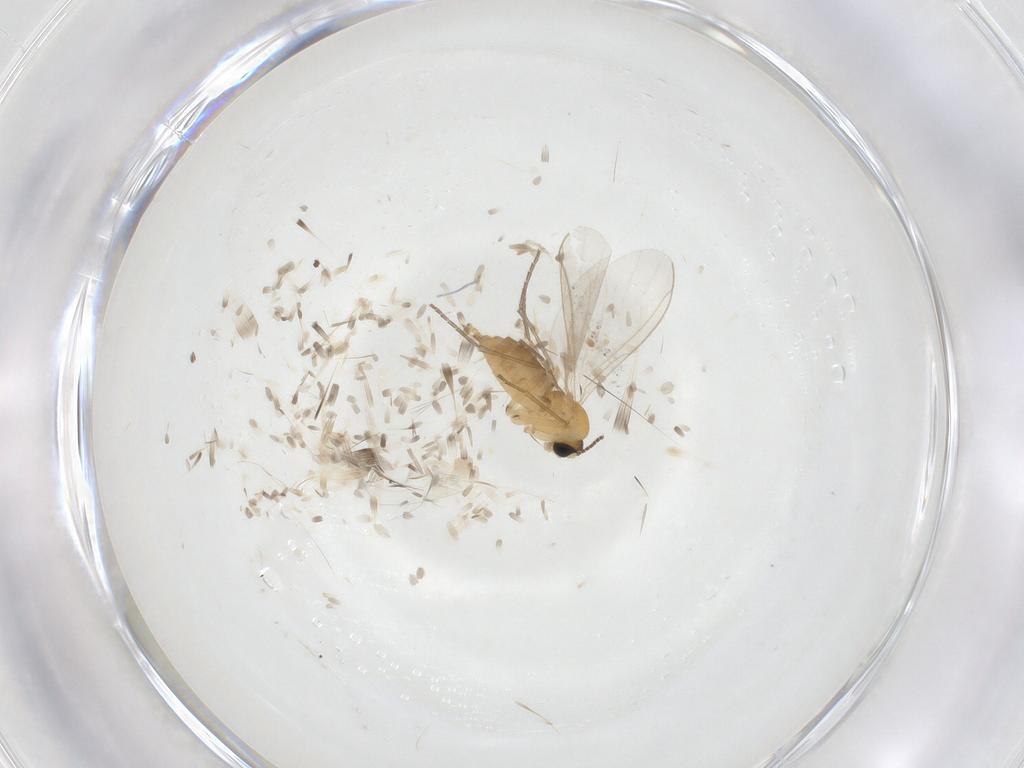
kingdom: Animalia
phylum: Arthropoda
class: Insecta
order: Diptera
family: Sciaridae
